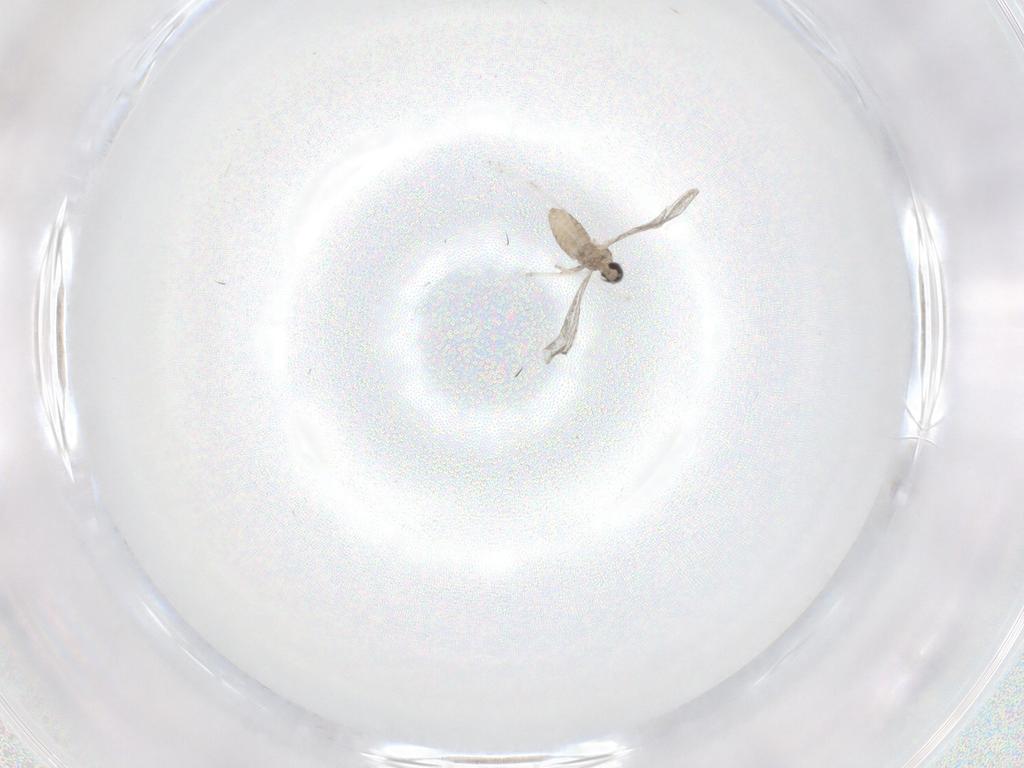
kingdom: Animalia
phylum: Arthropoda
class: Insecta
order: Diptera
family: Cecidomyiidae
